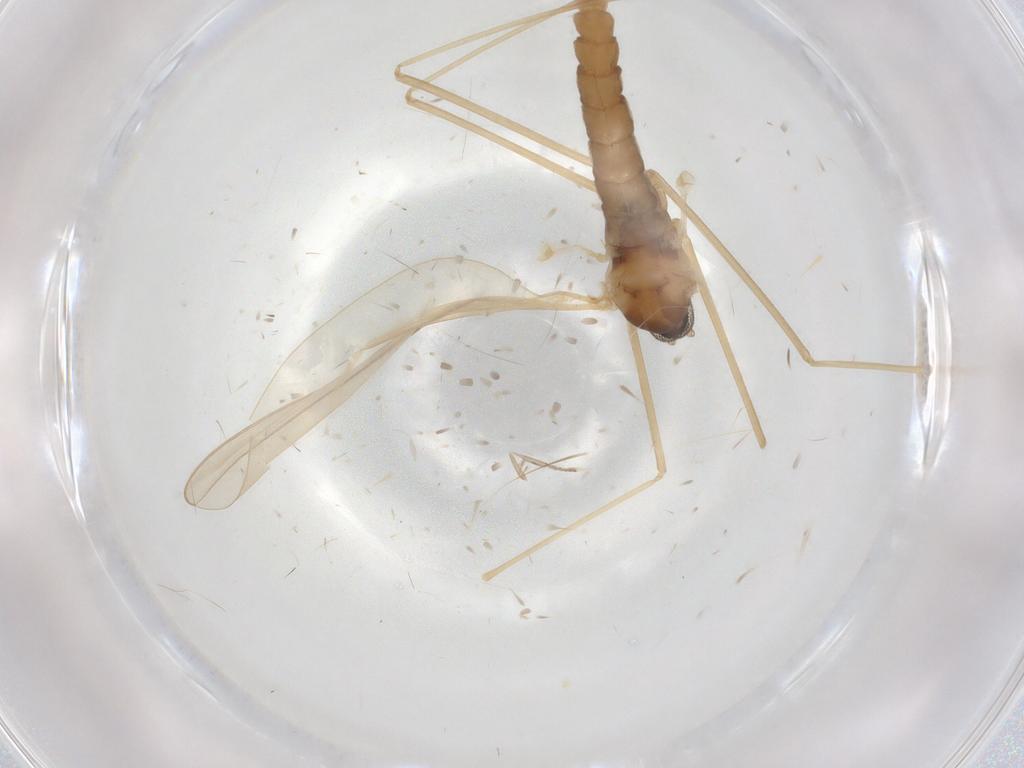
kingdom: Animalia
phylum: Arthropoda
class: Insecta
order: Diptera
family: Cecidomyiidae
